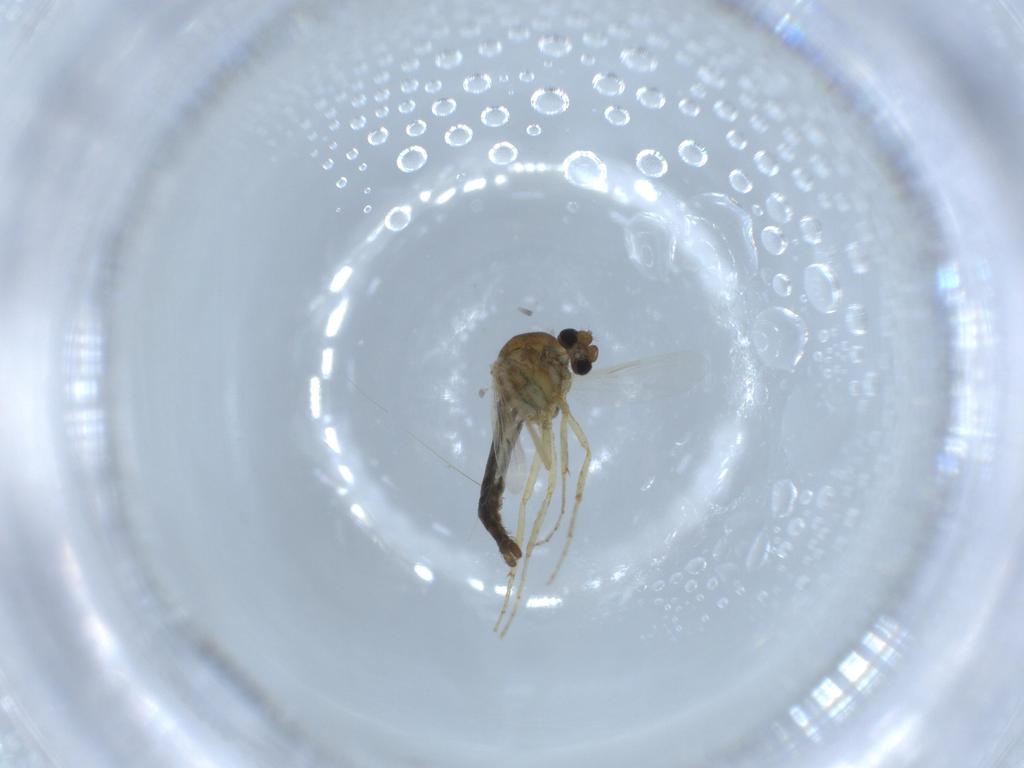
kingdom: Animalia
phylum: Arthropoda
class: Insecta
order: Diptera
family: Ceratopogonidae
